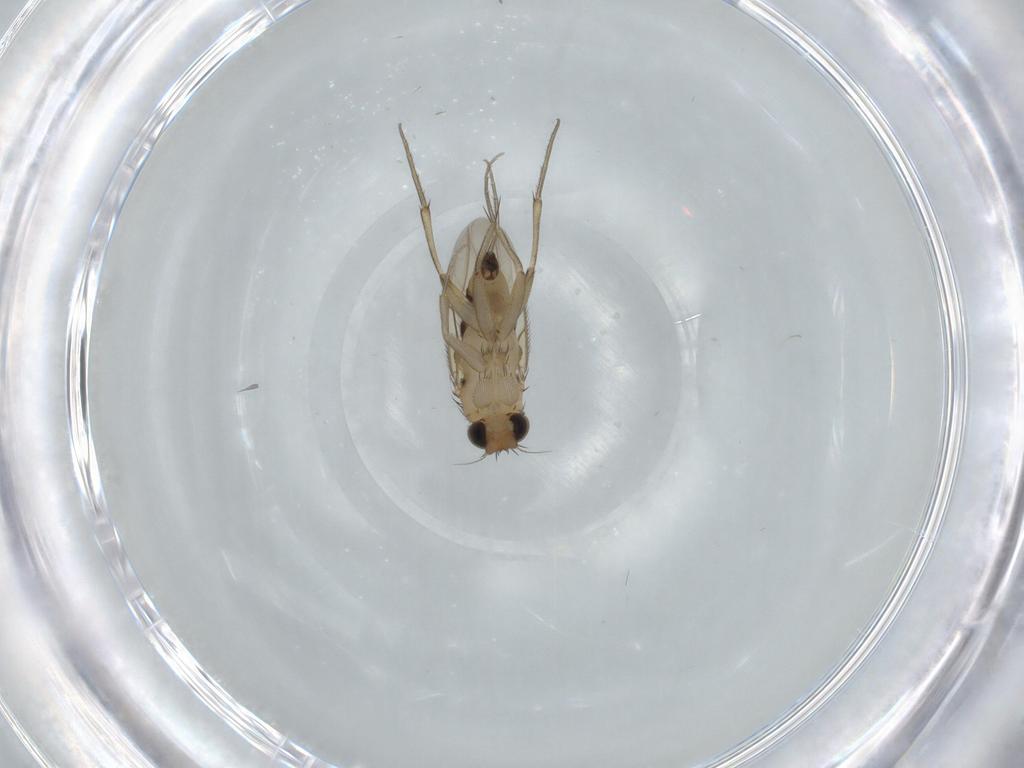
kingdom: Animalia
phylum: Arthropoda
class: Insecta
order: Diptera
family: Phoridae
